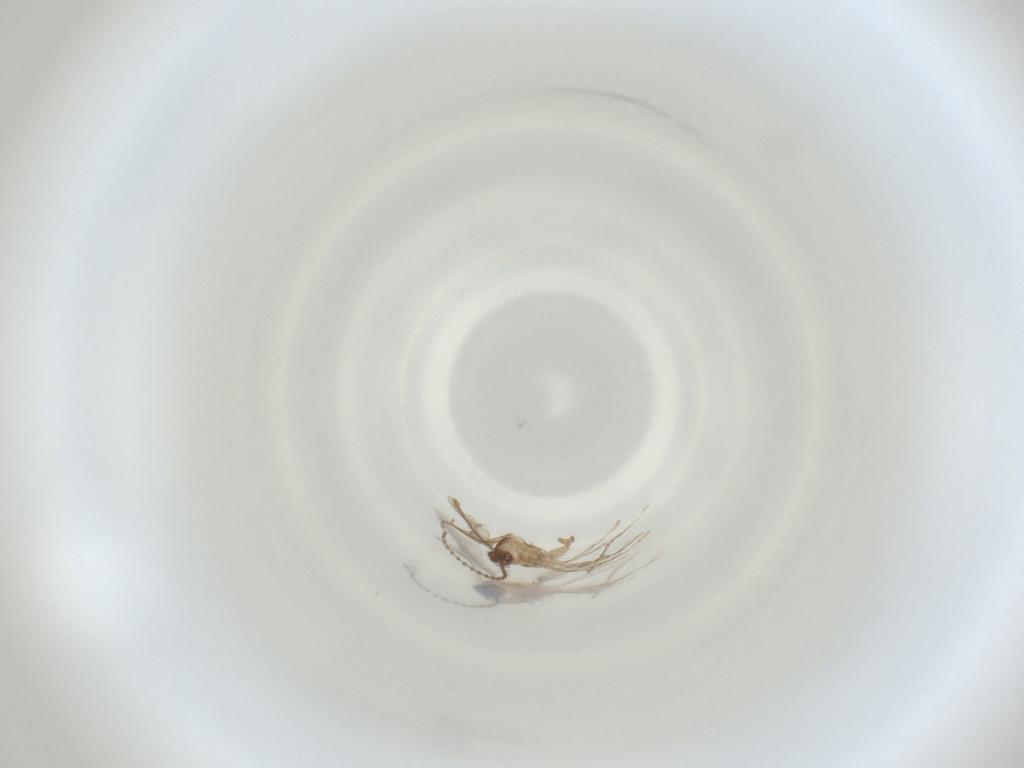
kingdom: Animalia
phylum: Arthropoda
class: Insecta
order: Diptera
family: Cecidomyiidae
